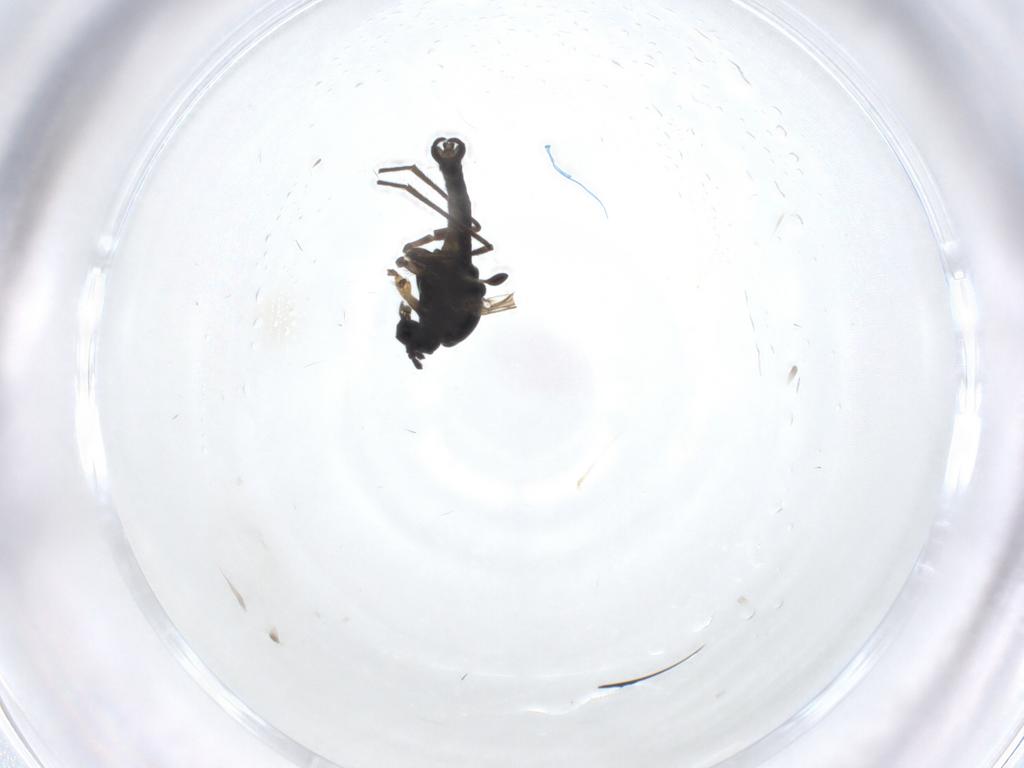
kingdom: Animalia
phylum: Arthropoda
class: Insecta
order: Diptera
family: Sciaridae
